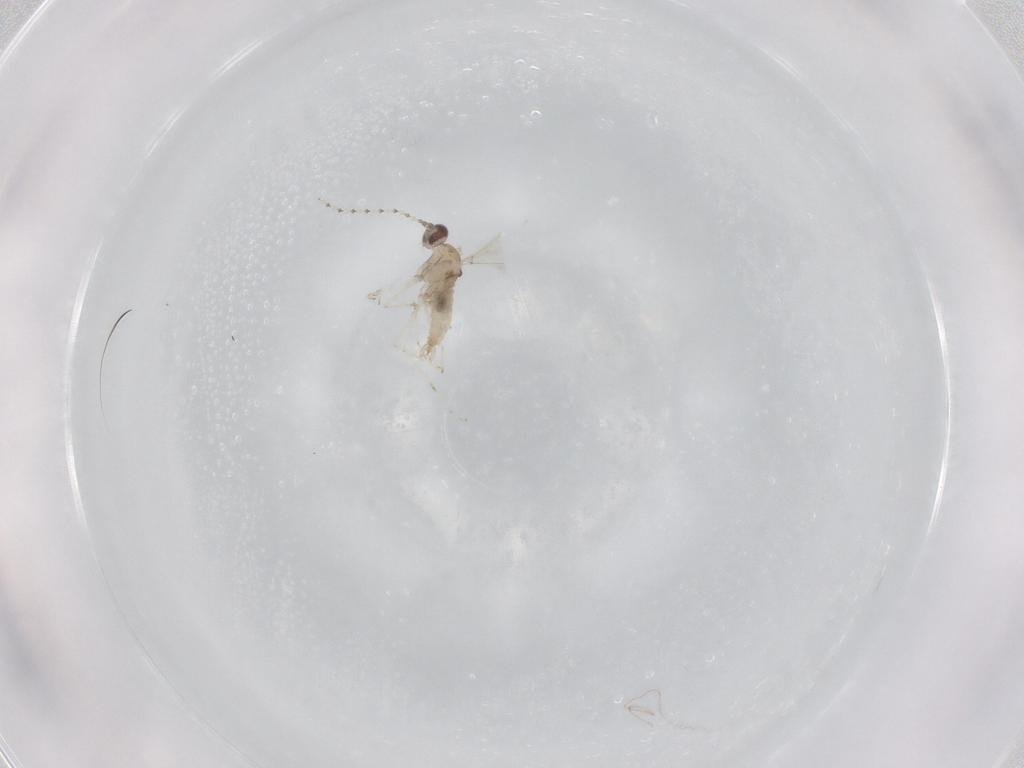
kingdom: Animalia
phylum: Arthropoda
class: Insecta
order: Diptera
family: Cecidomyiidae
